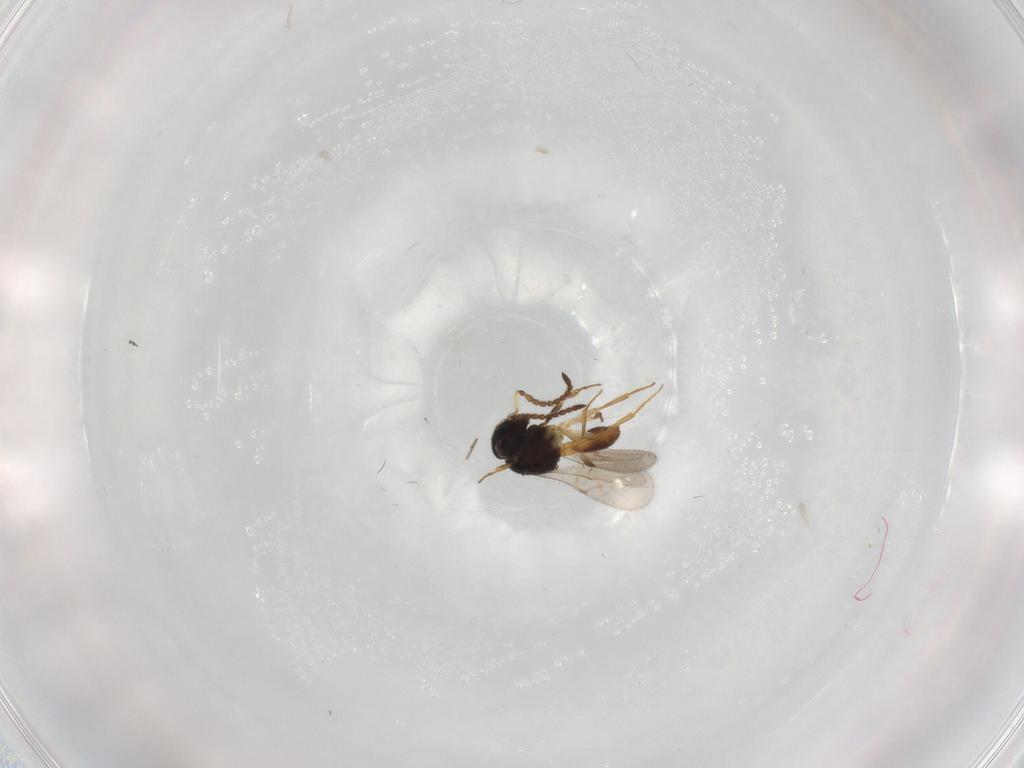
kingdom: Animalia
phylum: Arthropoda
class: Insecta
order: Hymenoptera
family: Scelionidae
